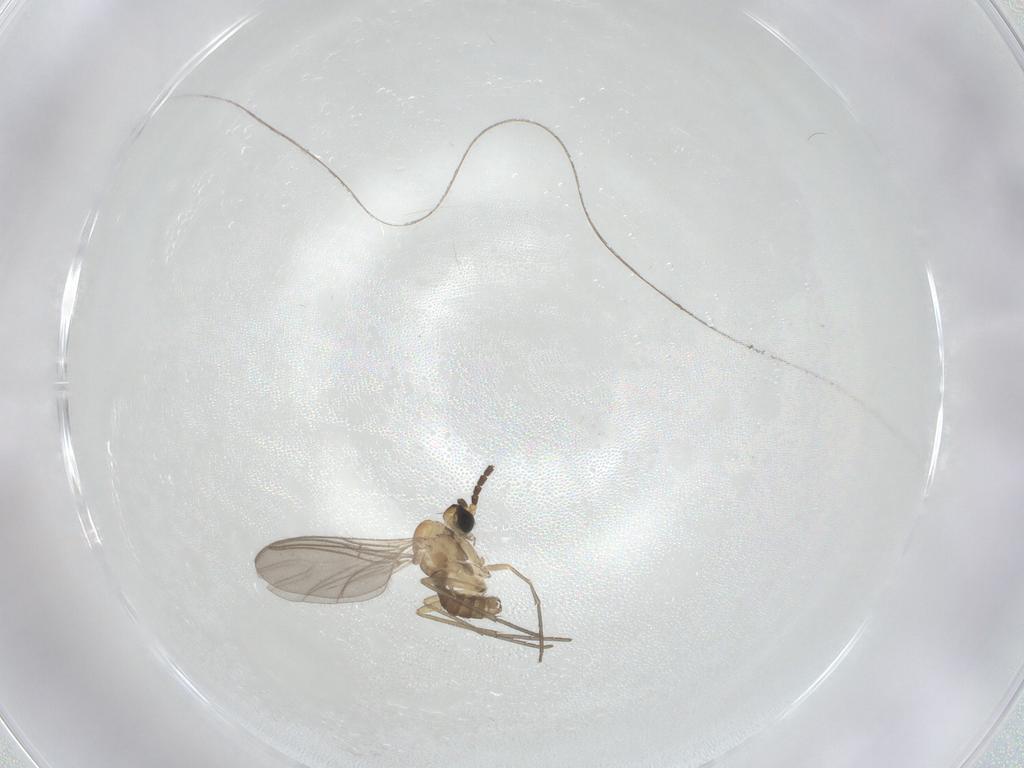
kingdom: Animalia
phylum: Arthropoda
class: Insecta
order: Diptera
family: Sciaridae
